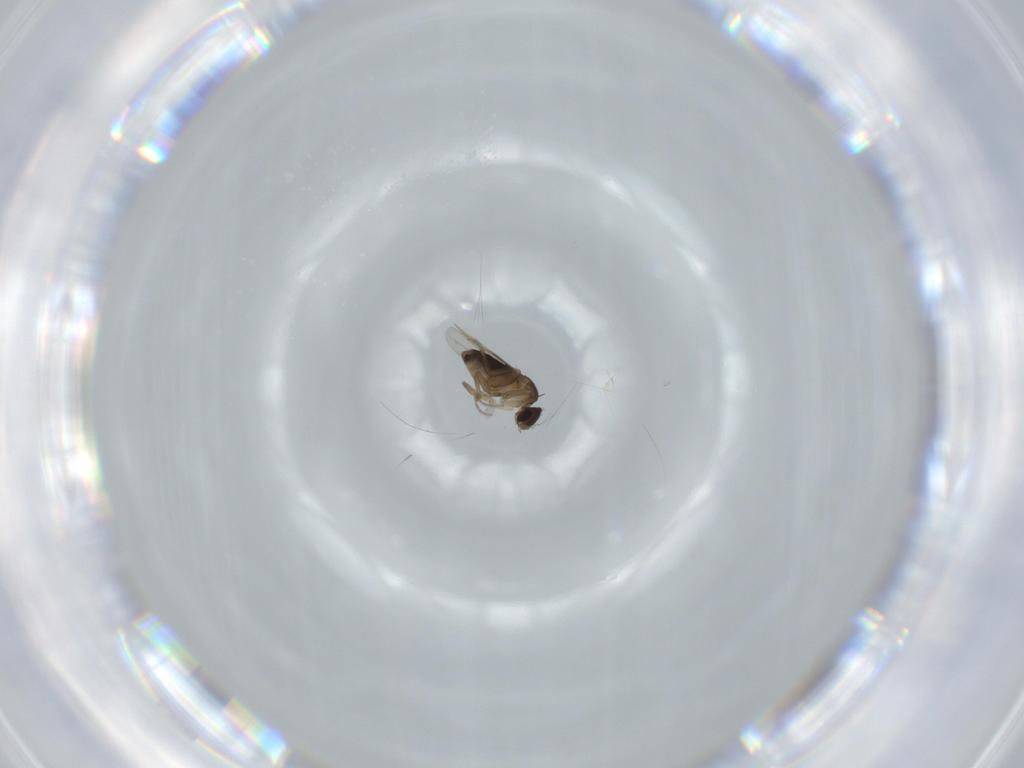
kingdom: Animalia
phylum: Arthropoda
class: Insecta
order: Diptera
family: Phoridae
